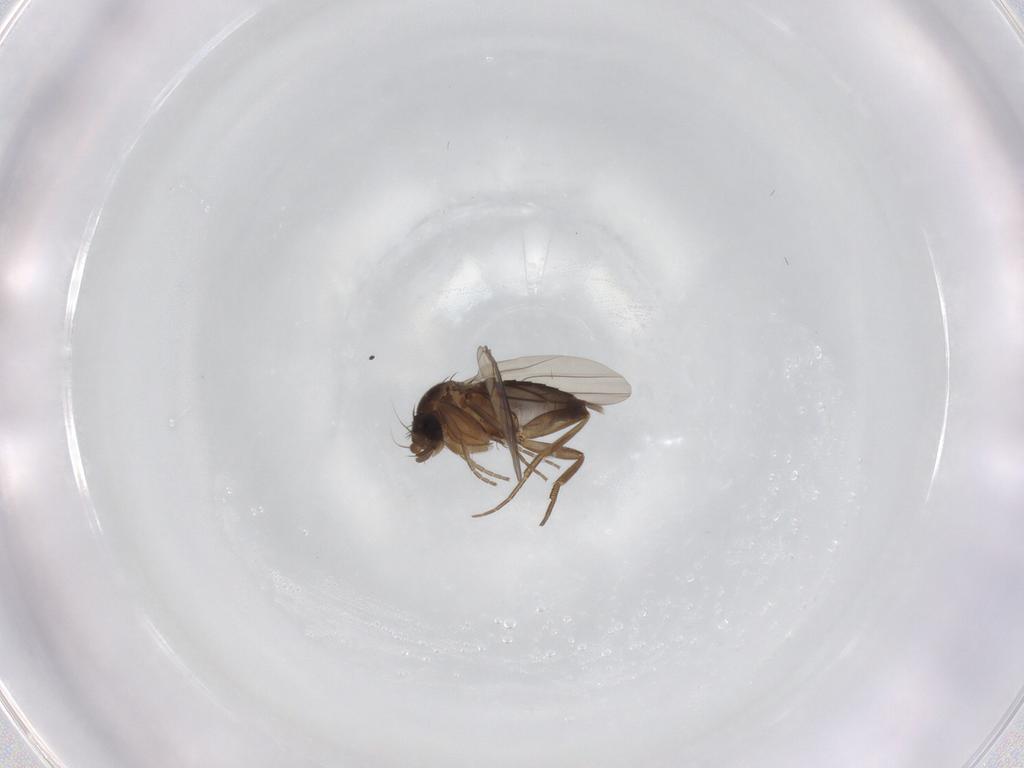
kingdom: Animalia
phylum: Arthropoda
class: Insecta
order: Diptera
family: Phoridae
